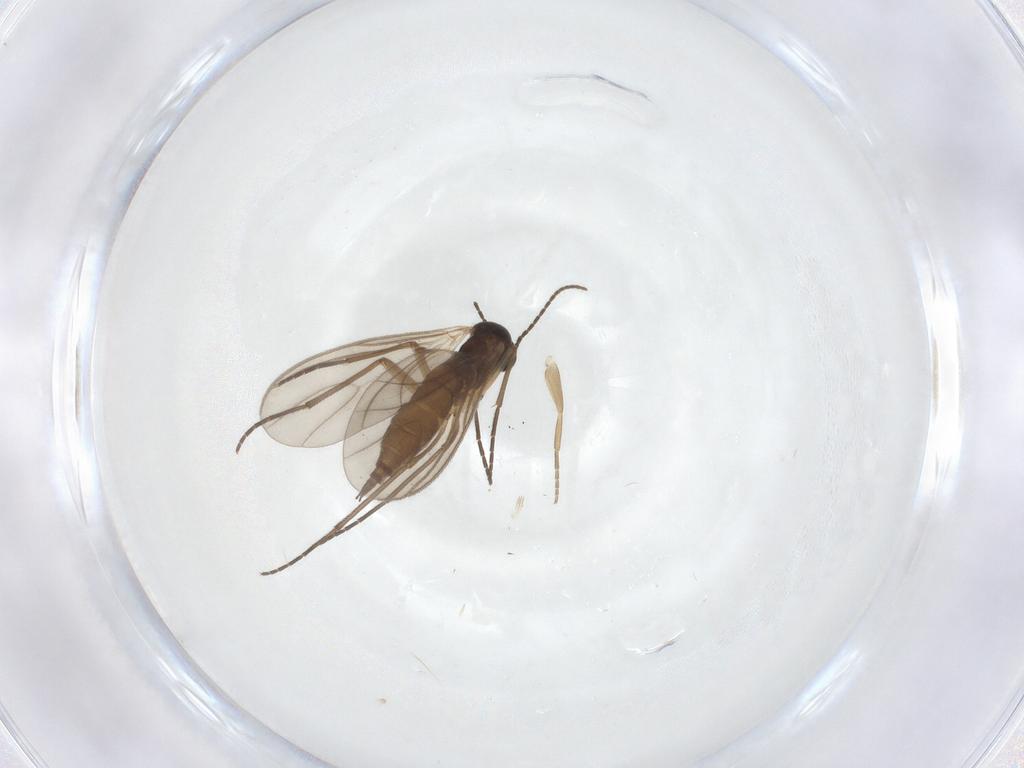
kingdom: Animalia
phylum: Arthropoda
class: Insecta
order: Diptera
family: Sciaridae
